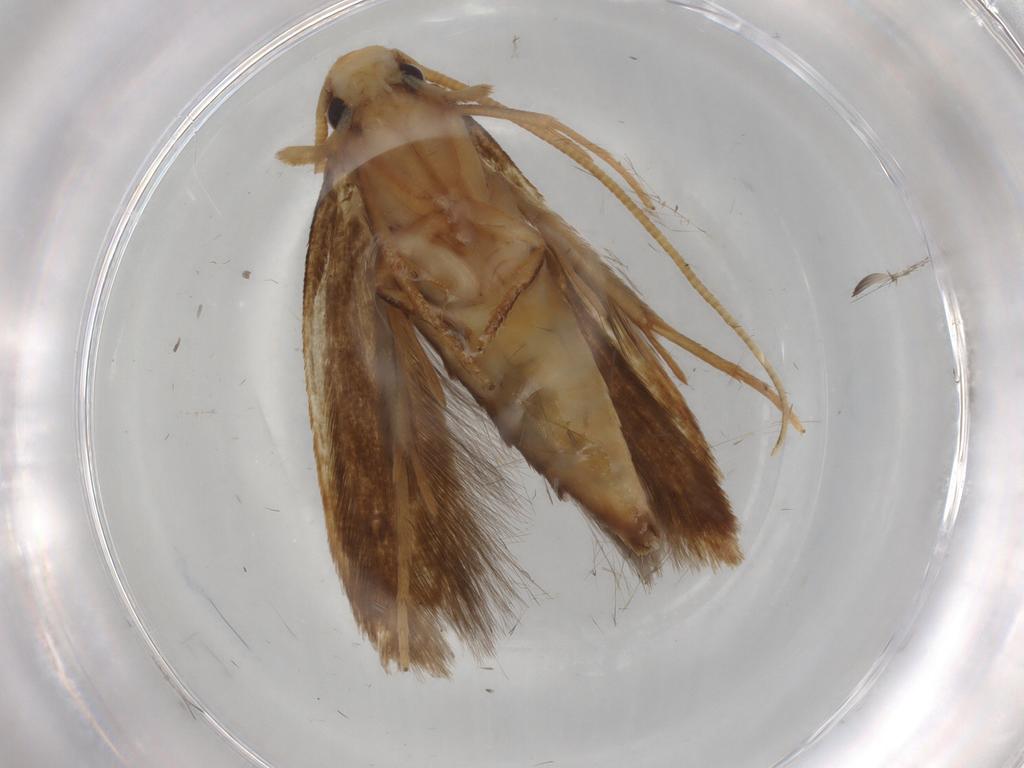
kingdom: Animalia
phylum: Arthropoda
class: Insecta
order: Lepidoptera
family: Tineidae
